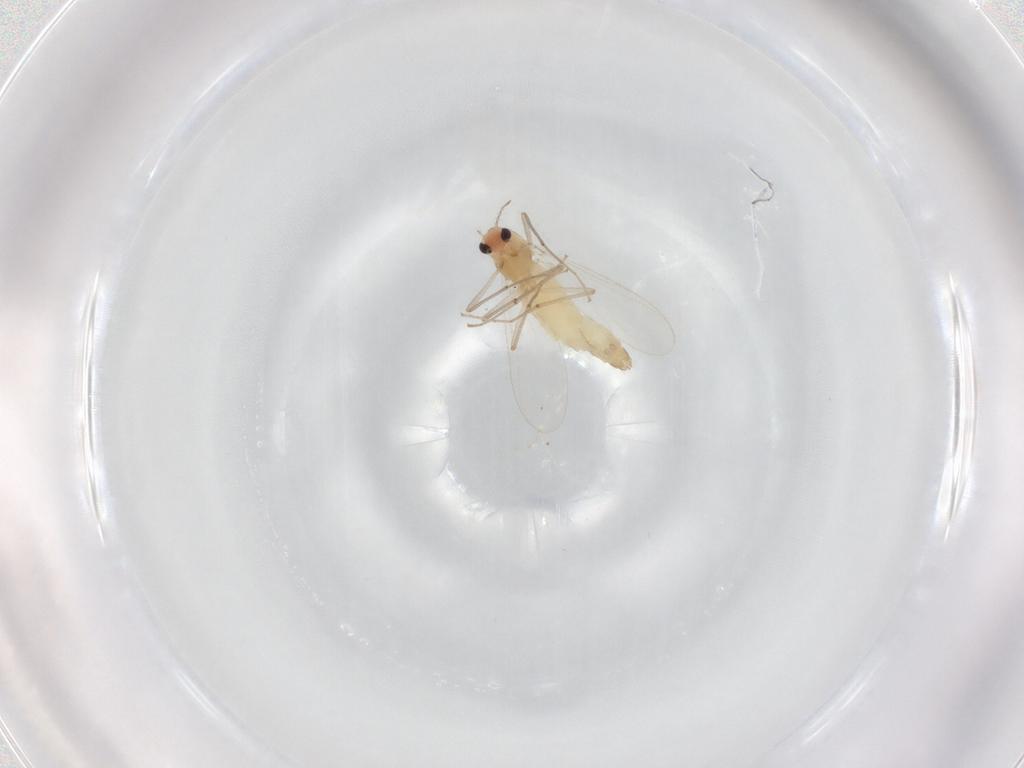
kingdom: Animalia
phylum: Arthropoda
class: Insecta
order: Diptera
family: Chironomidae
